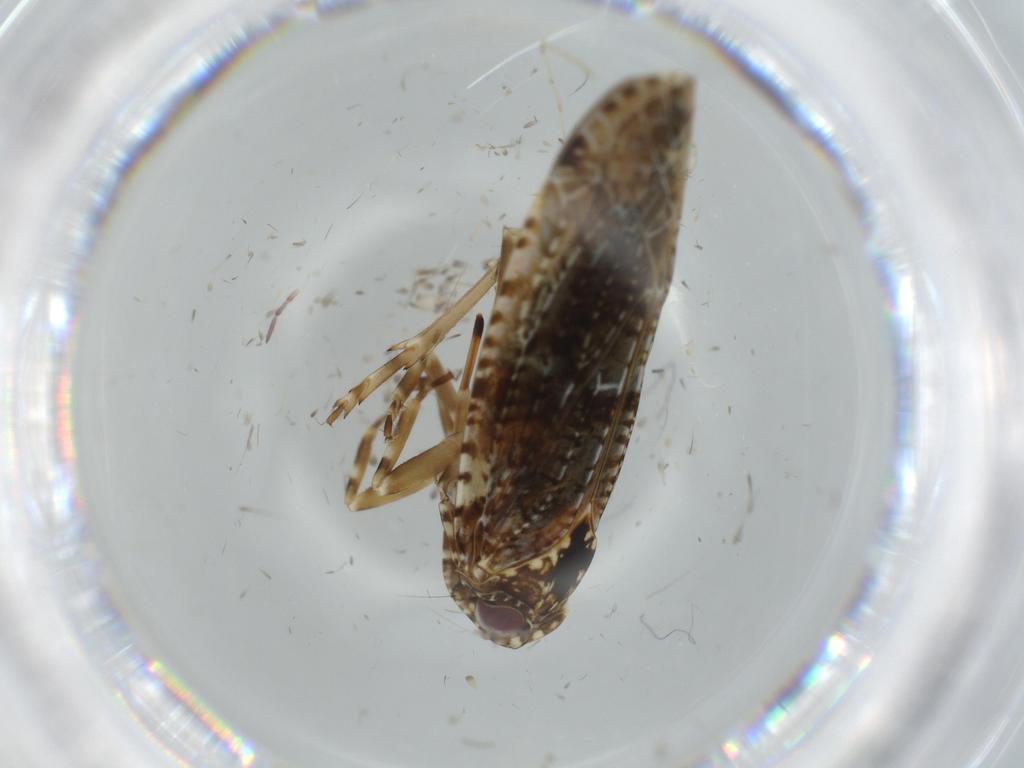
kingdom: Animalia
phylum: Arthropoda
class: Insecta
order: Hemiptera
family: Achilidae
